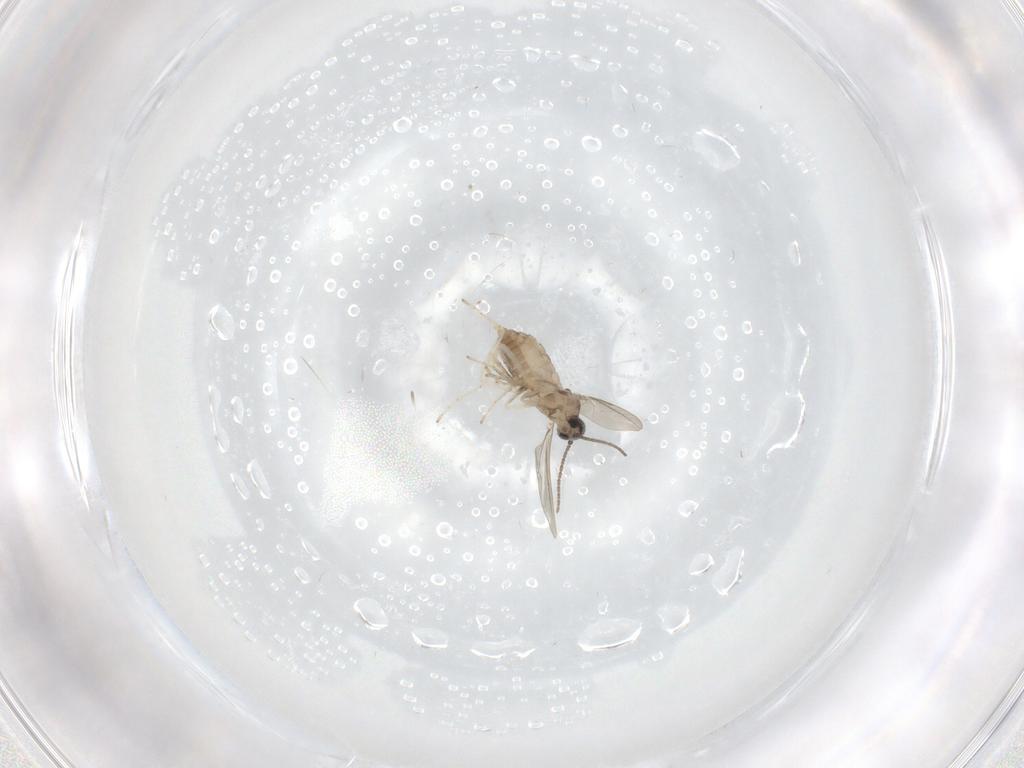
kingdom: Animalia
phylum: Arthropoda
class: Insecta
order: Diptera
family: Cecidomyiidae
